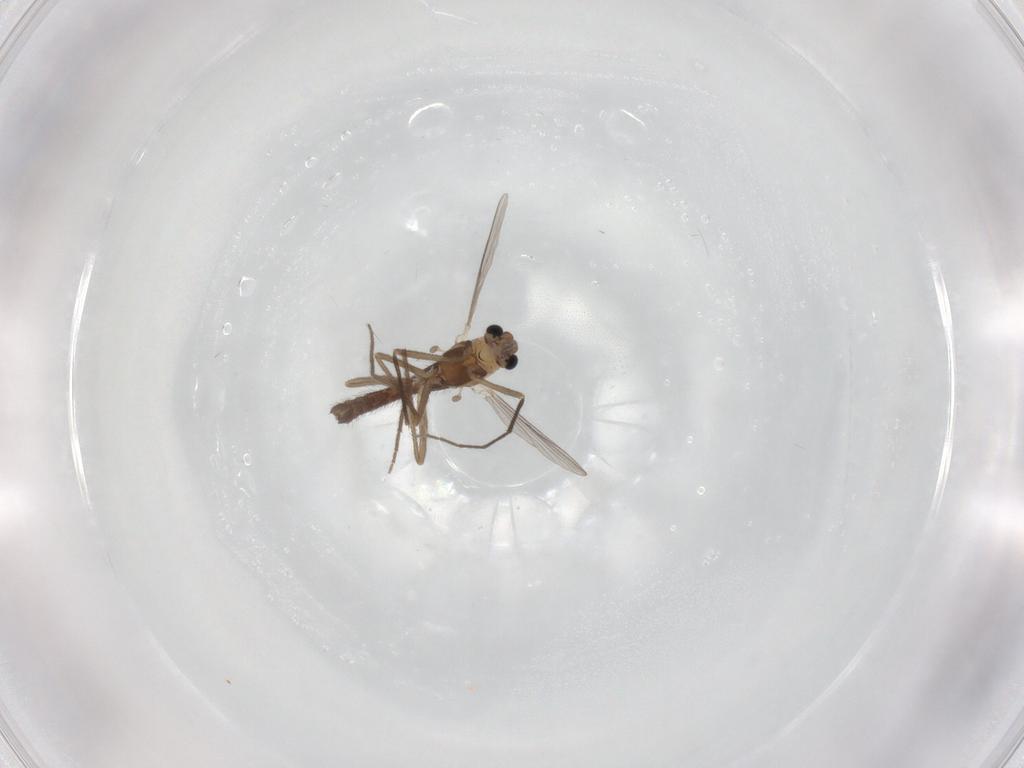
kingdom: Animalia
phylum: Arthropoda
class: Insecta
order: Diptera
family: Chironomidae
